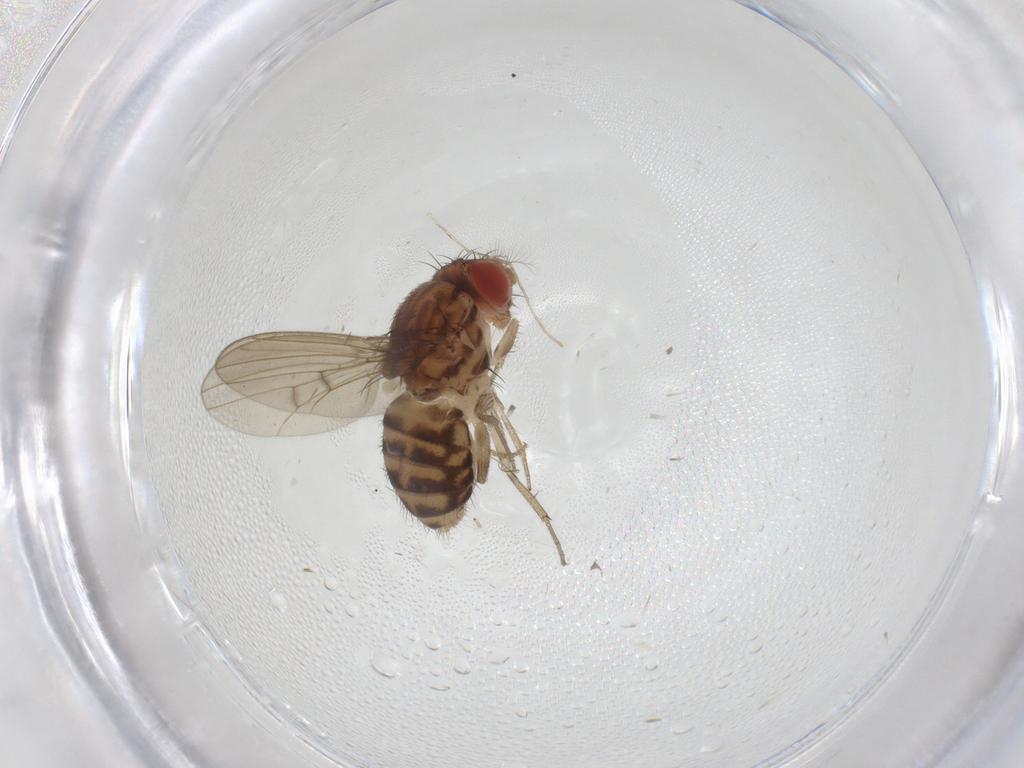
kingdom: Animalia
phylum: Arthropoda
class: Insecta
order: Diptera
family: Drosophilidae
